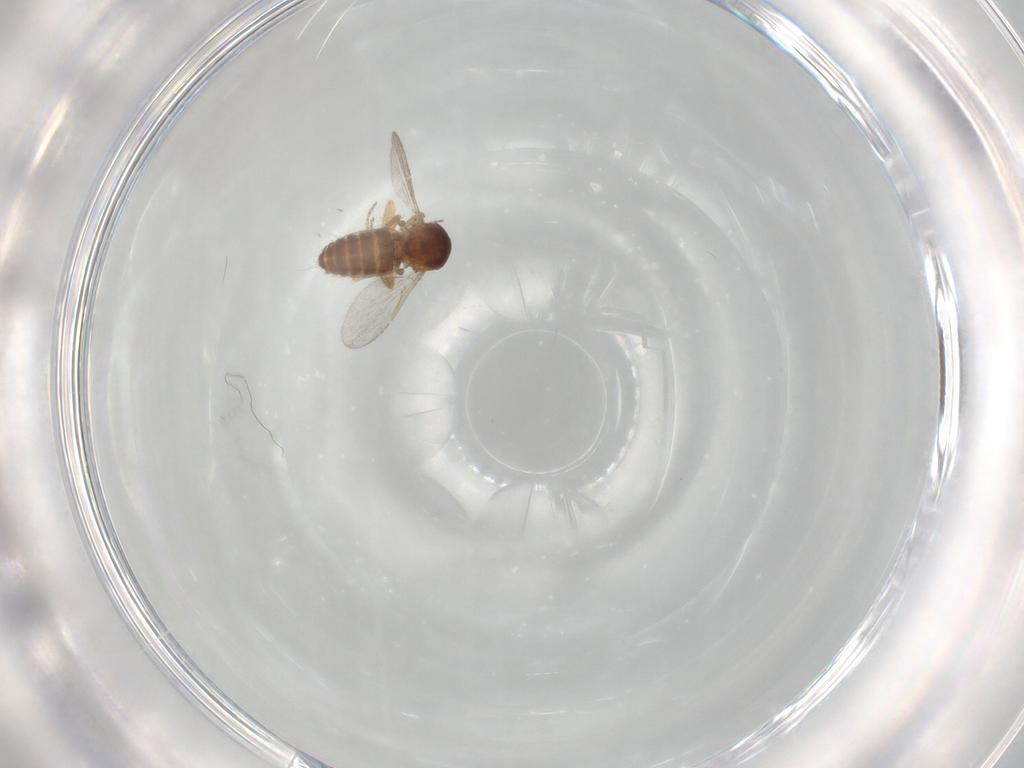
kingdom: Animalia
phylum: Arthropoda
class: Insecta
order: Diptera
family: Ceratopogonidae
